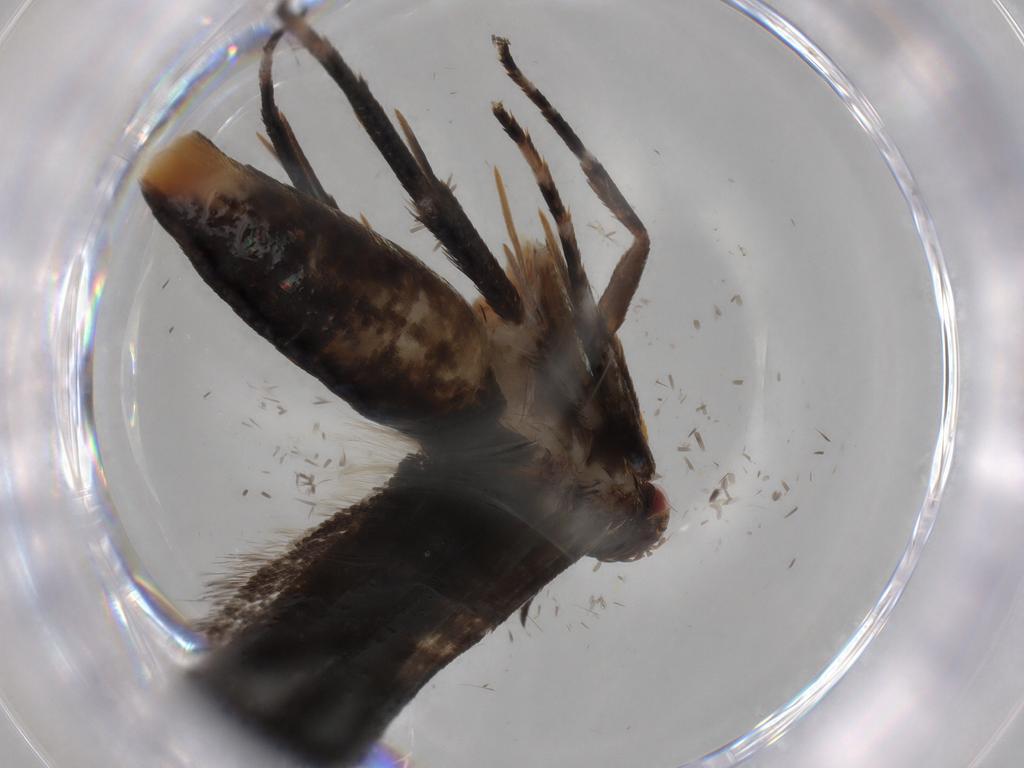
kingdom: Animalia
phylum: Arthropoda
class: Insecta
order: Lepidoptera
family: Gelechiidae
